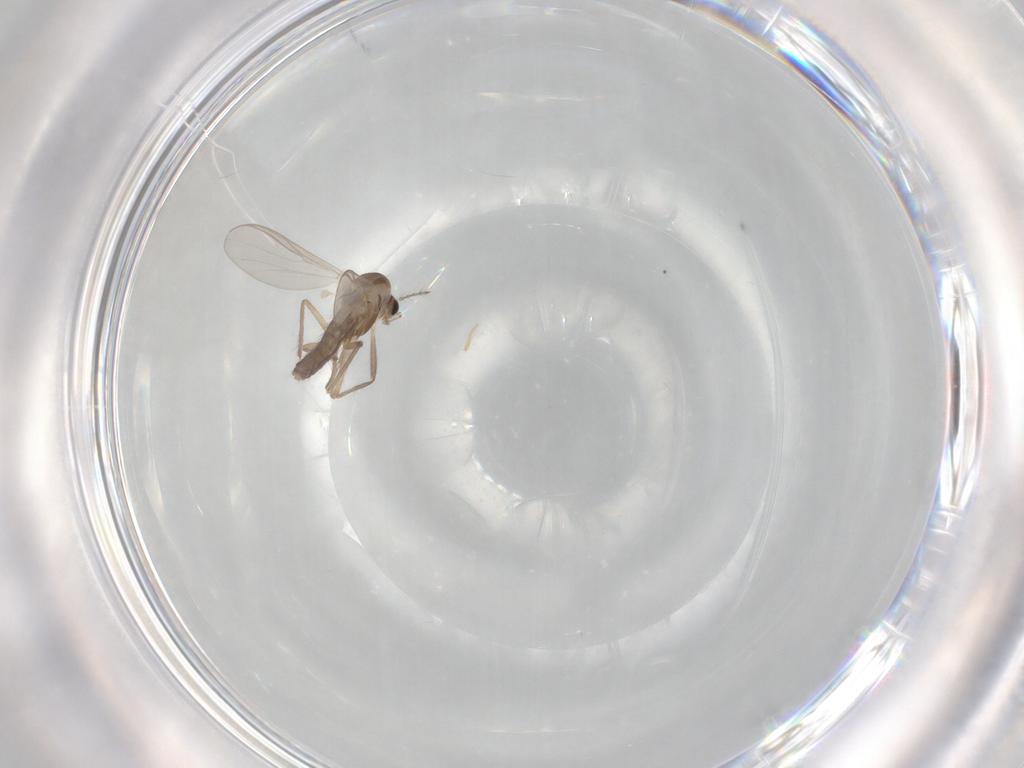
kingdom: Animalia
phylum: Arthropoda
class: Insecta
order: Diptera
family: Chironomidae
